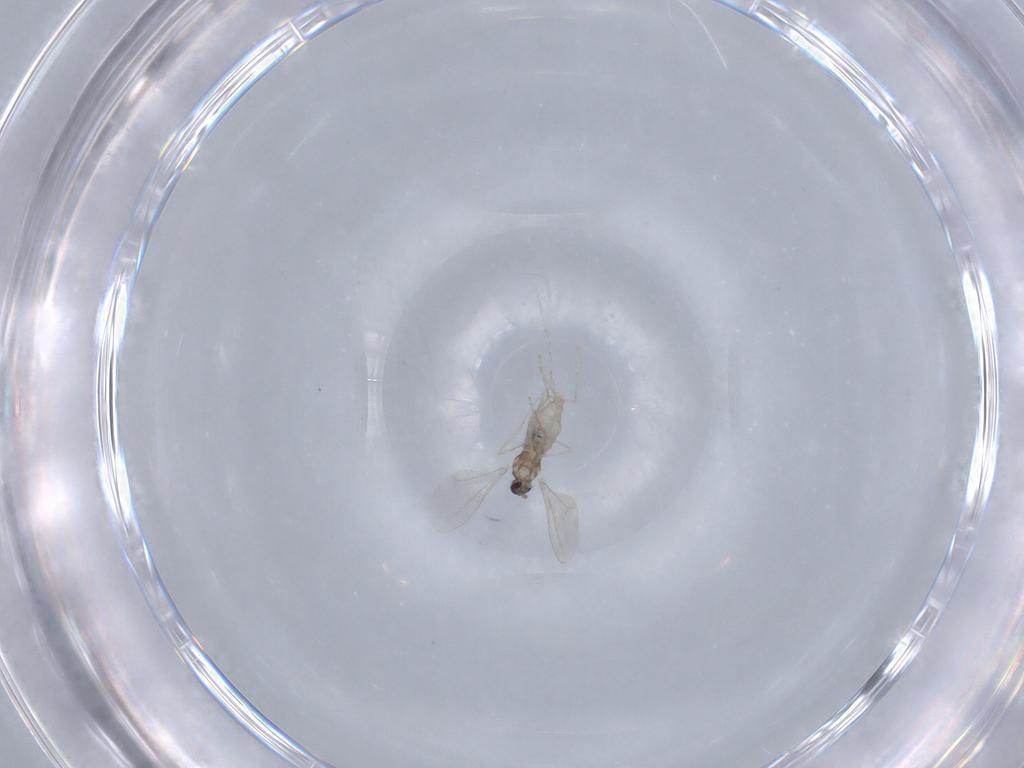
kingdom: Animalia
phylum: Arthropoda
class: Insecta
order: Diptera
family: Cecidomyiidae
